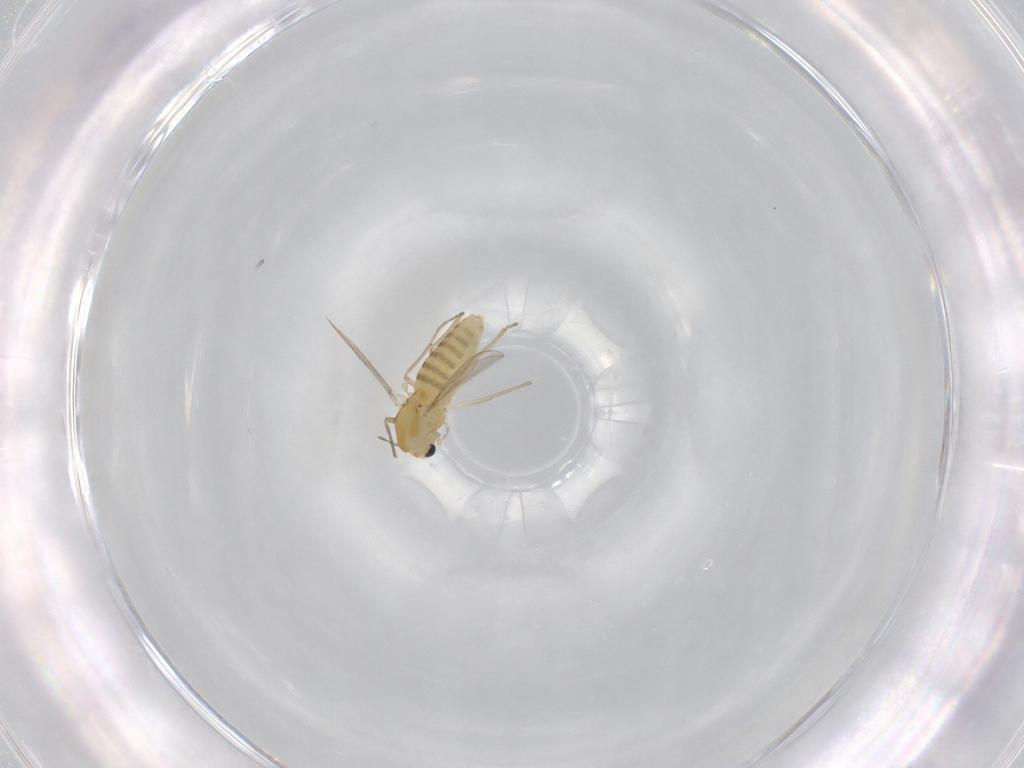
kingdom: Animalia
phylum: Arthropoda
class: Insecta
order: Diptera
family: Chironomidae
